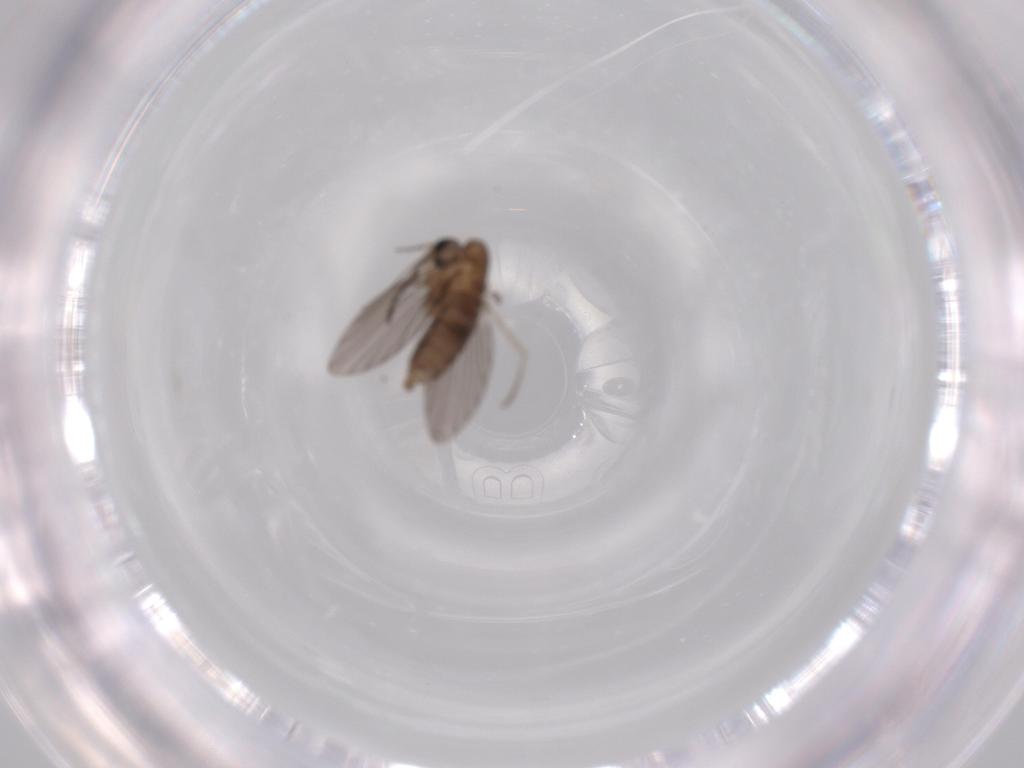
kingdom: Animalia
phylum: Arthropoda
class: Insecta
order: Diptera
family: Psychodidae
